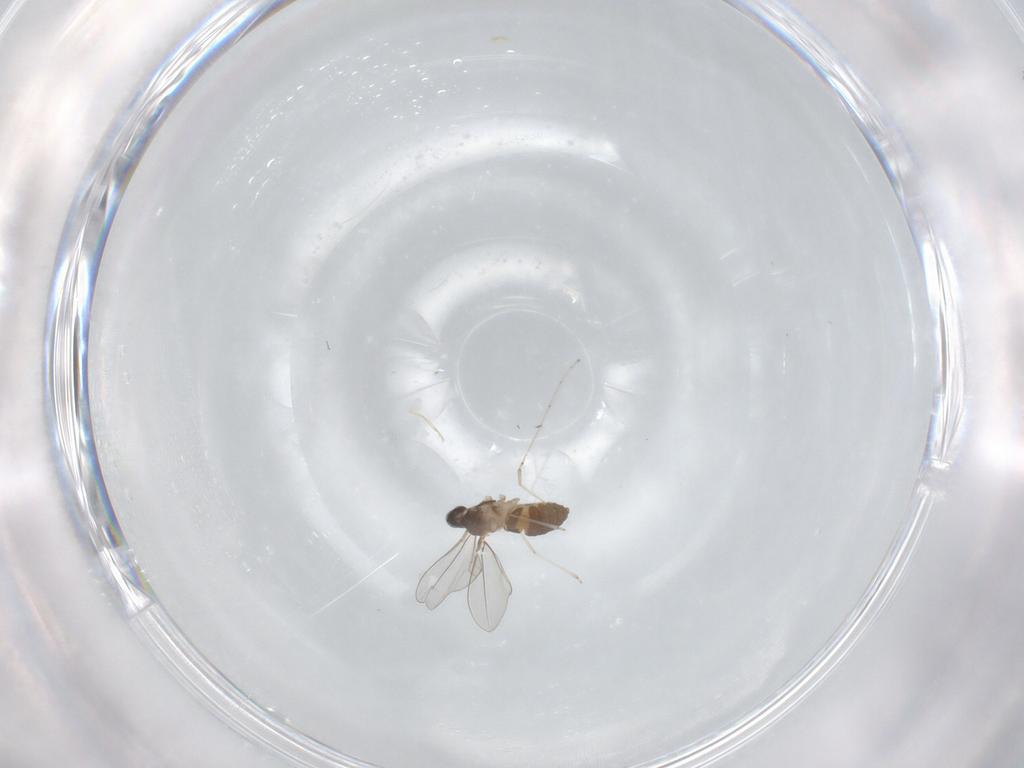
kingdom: Animalia
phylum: Arthropoda
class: Insecta
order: Diptera
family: Cecidomyiidae
